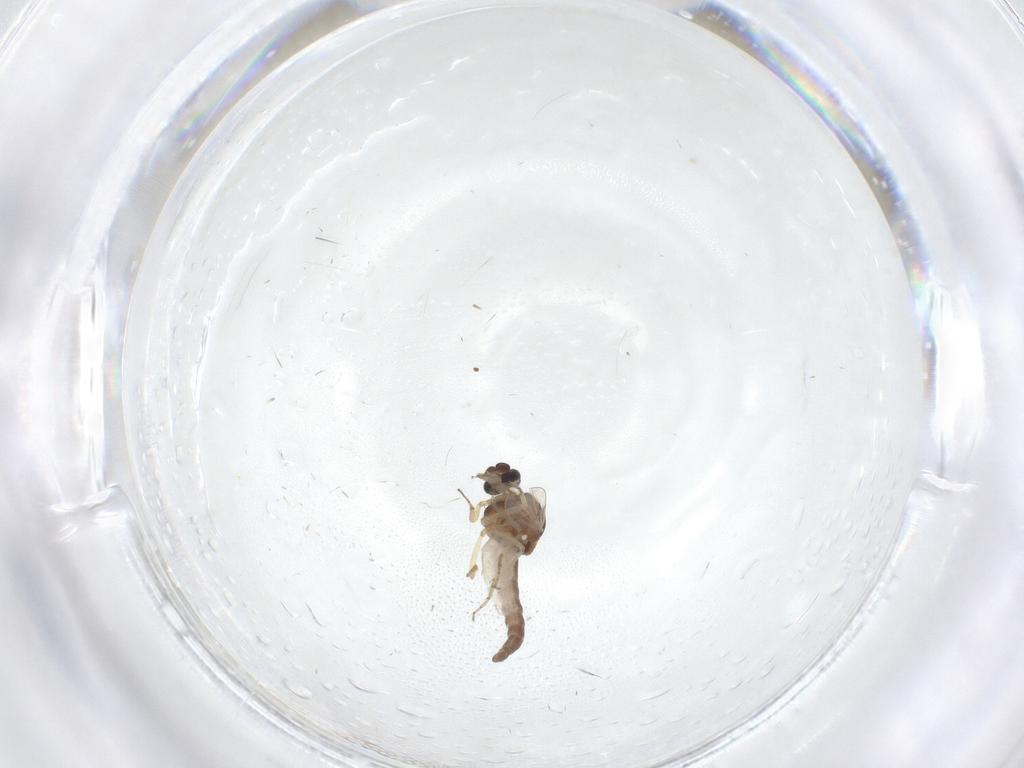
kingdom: Animalia
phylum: Arthropoda
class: Insecta
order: Diptera
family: Ceratopogonidae
